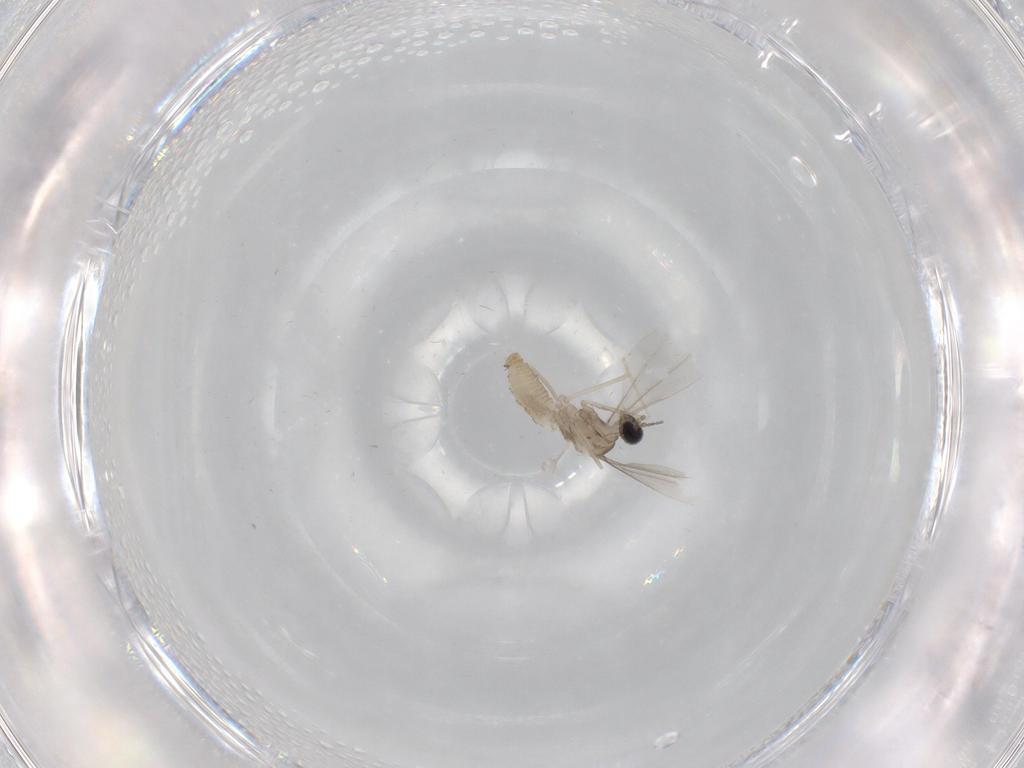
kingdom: Animalia
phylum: Arthropoda
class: Insecta
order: Diptera
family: Cecidomyiidae
